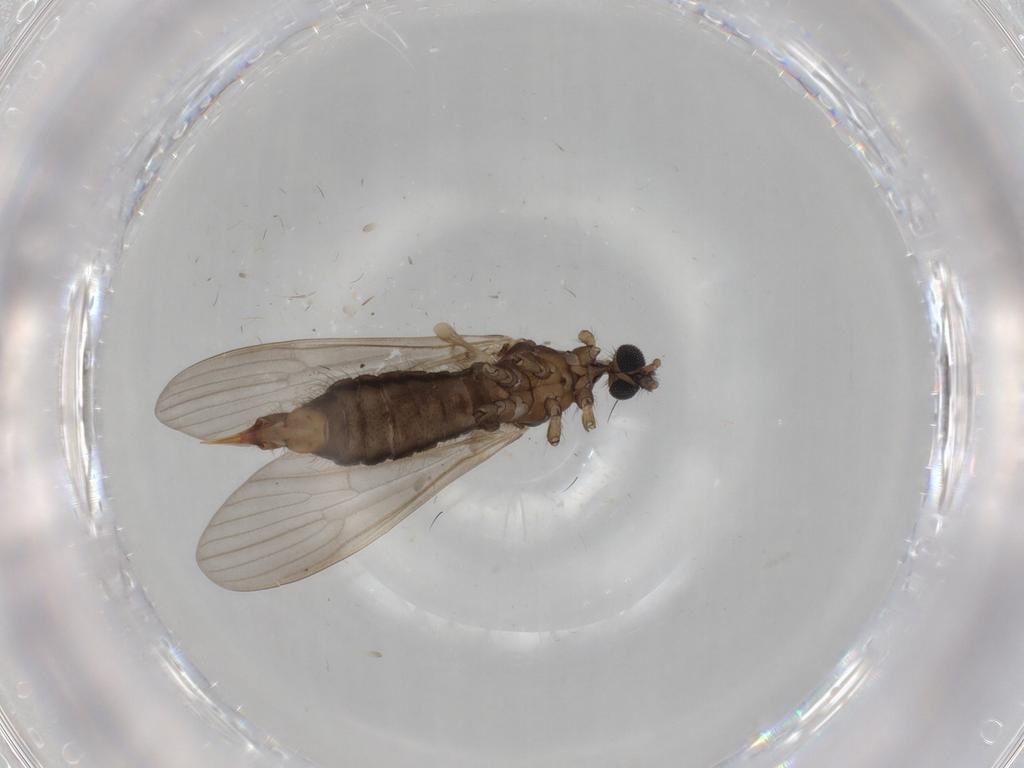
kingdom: Animalia
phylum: Arthropoda
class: Insecta
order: Diptera
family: Limoniidae
